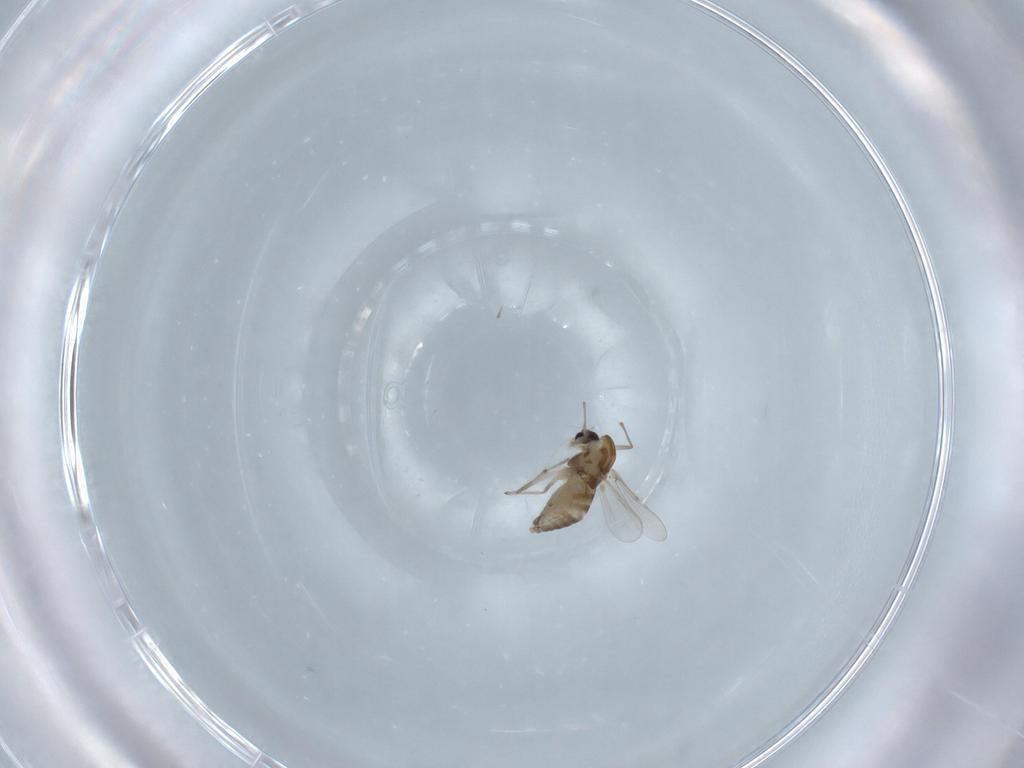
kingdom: Animalia
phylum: Arthropoda
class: Insecta
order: Diptera
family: Chironomidae
